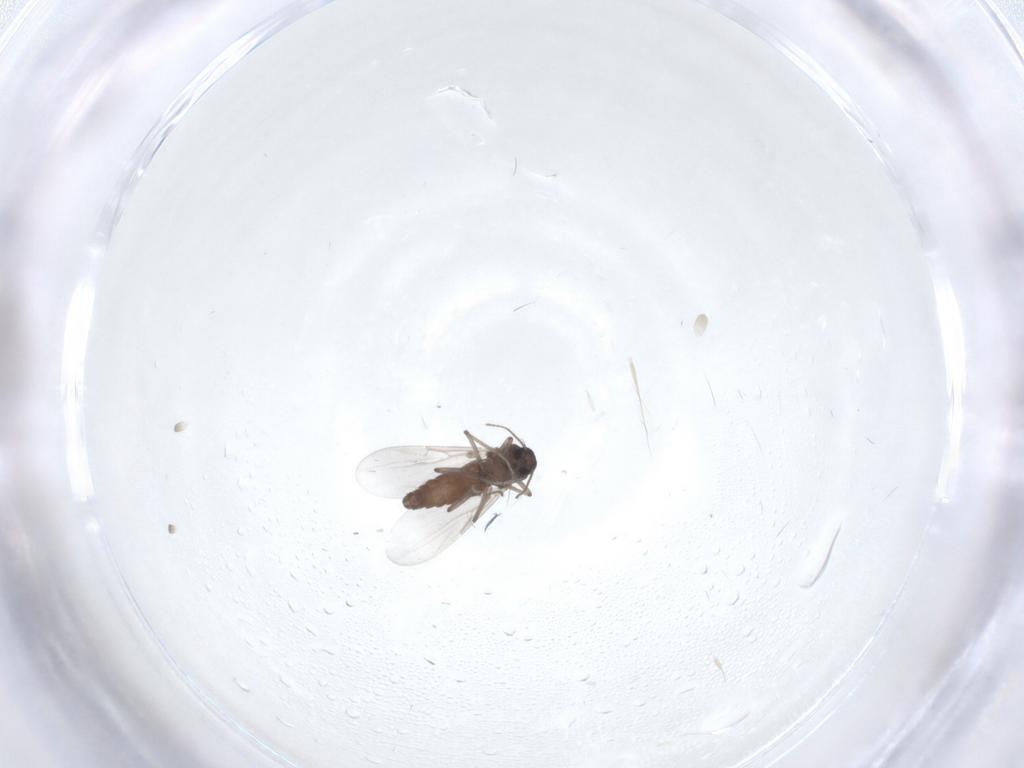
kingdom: Animalia
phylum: Arthropoda
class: Insecta
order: Diptera
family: Ceratopogonidae
